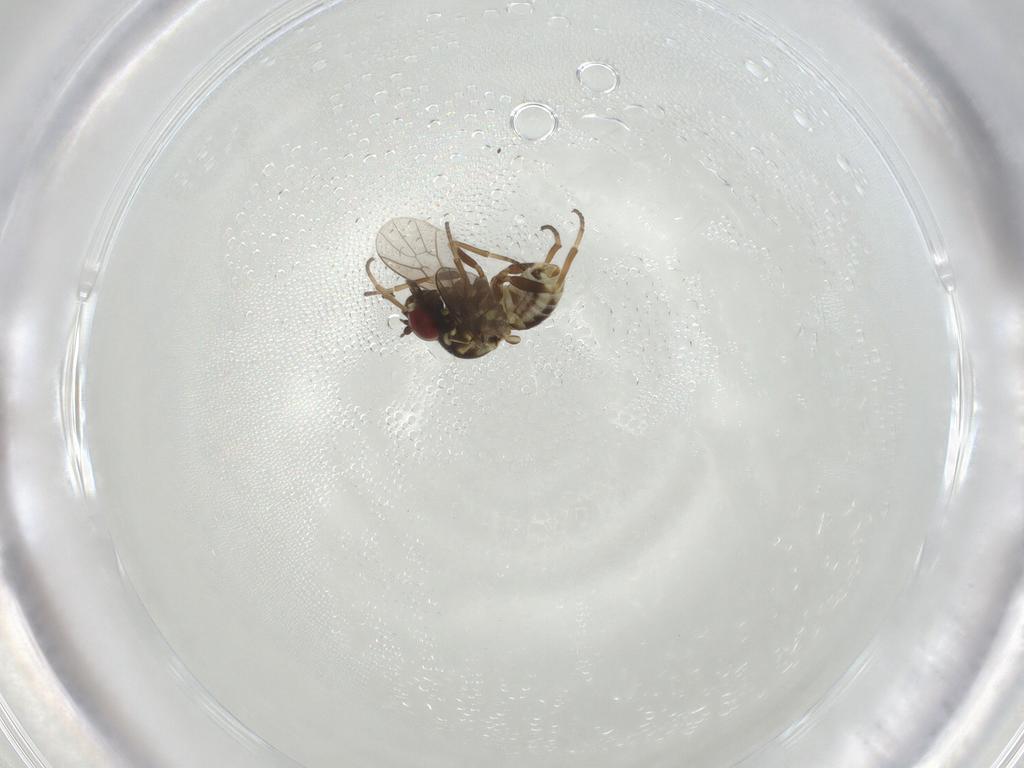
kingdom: Animalia
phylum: Arthropoda
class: Insecta
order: Diptera
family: Bombyliidae
